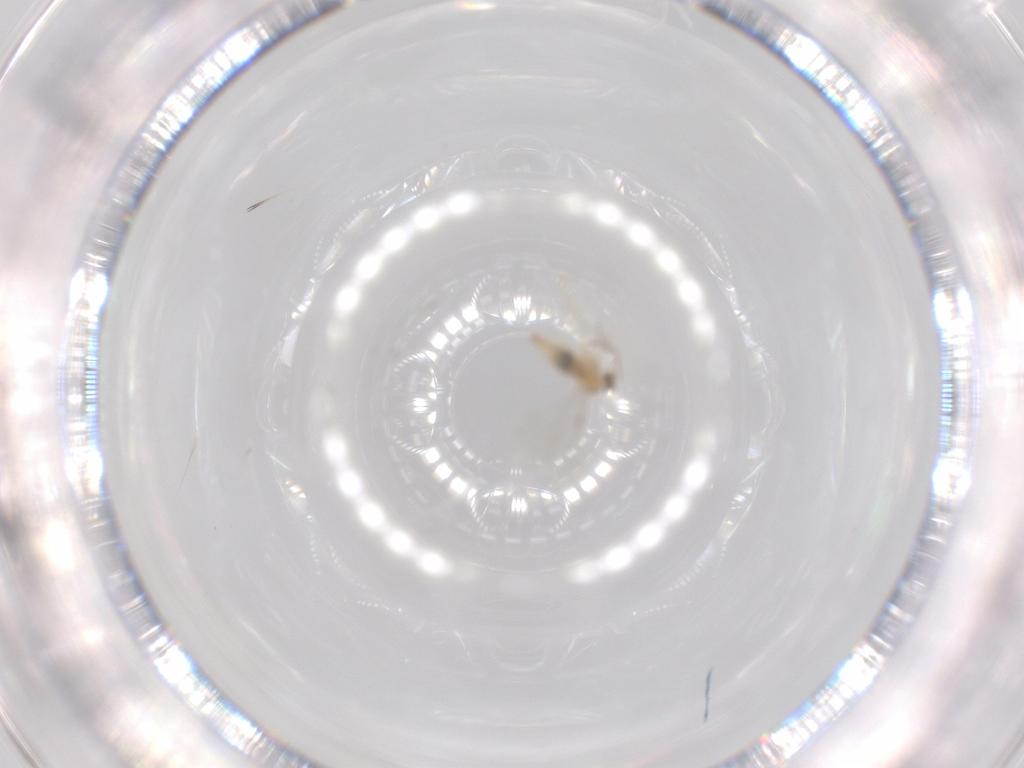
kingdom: Animalia
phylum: Arthropoda
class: Insecta
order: Diptera
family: Cecidomyiidae
